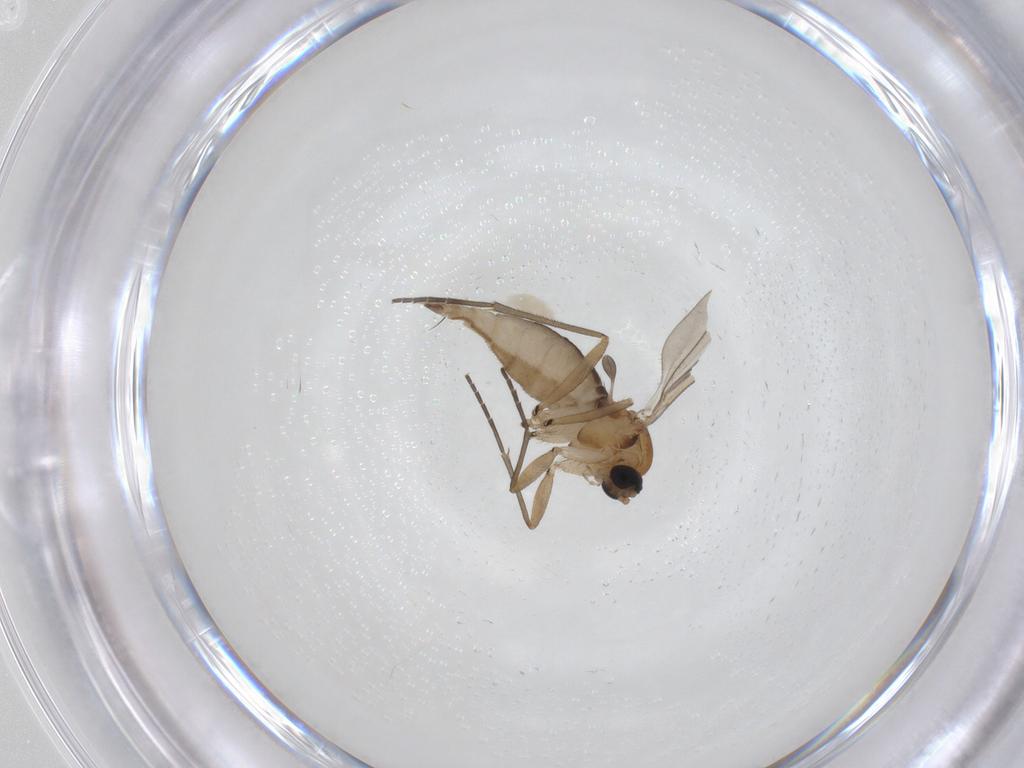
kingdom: Animalia
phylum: Arthropoda
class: Insecta
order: Diptera
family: Sciaridae
